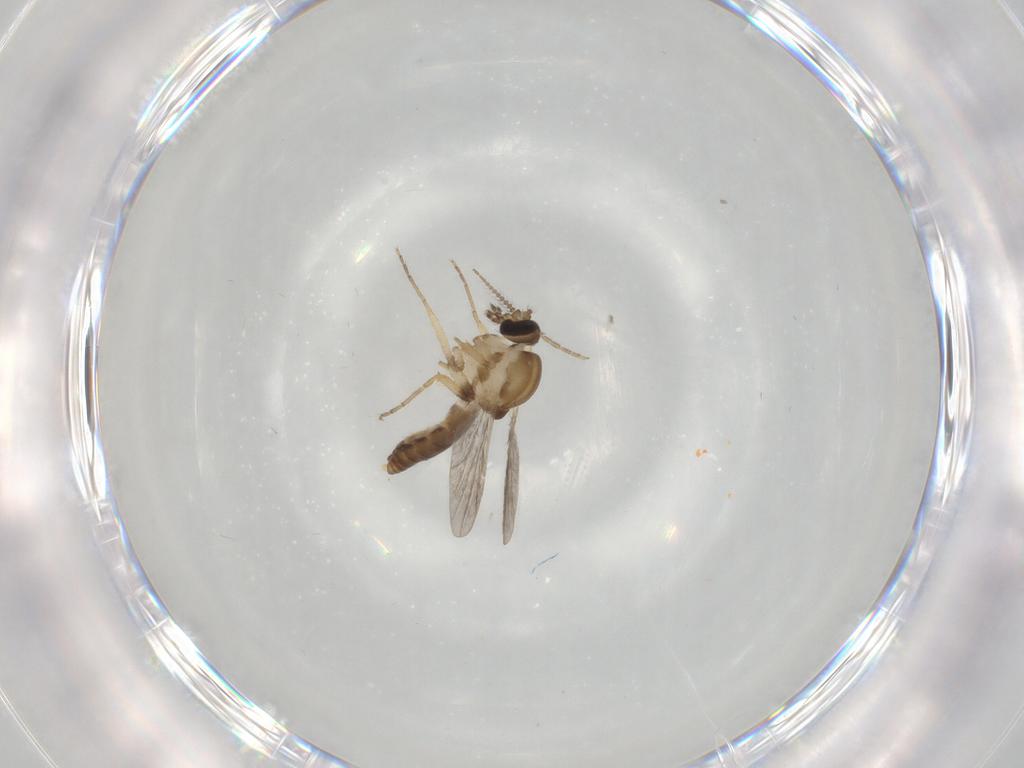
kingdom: Animalia
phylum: Arthropoda
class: Insecta
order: Diptera
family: Ceratopogonidae
